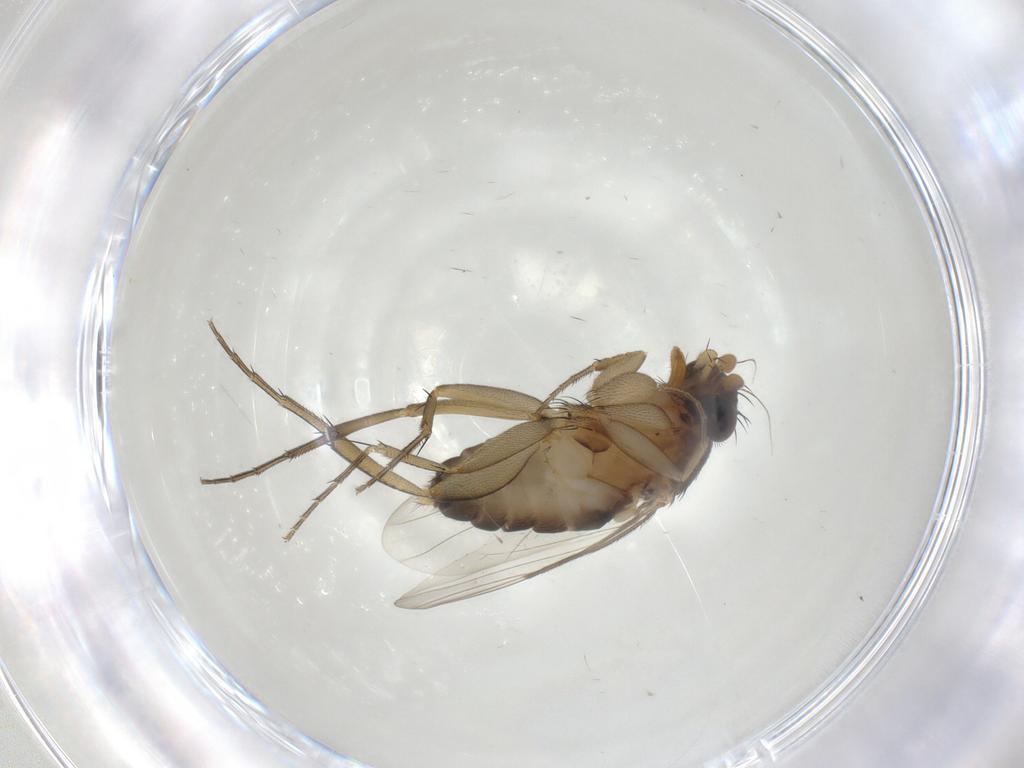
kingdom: Animalia
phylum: Arthropoda
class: Insecta
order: Diptera
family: Phoridae
